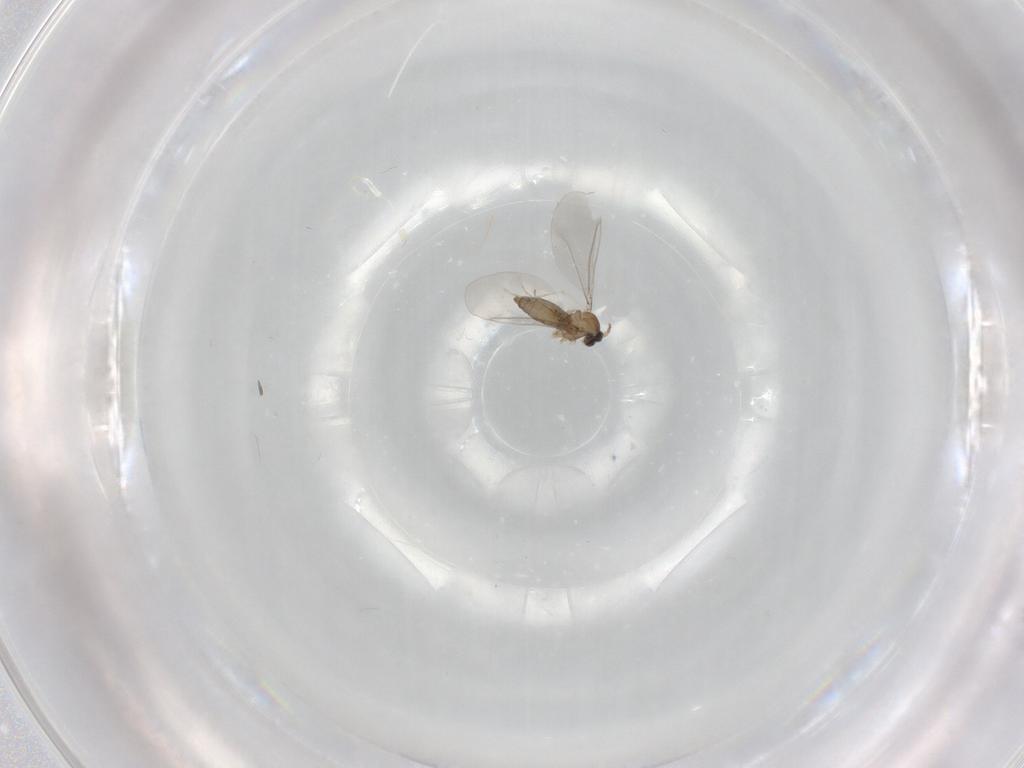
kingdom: Animalia
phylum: Arthropoda
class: Insecta
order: Diptera
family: Cecidomyiidae
